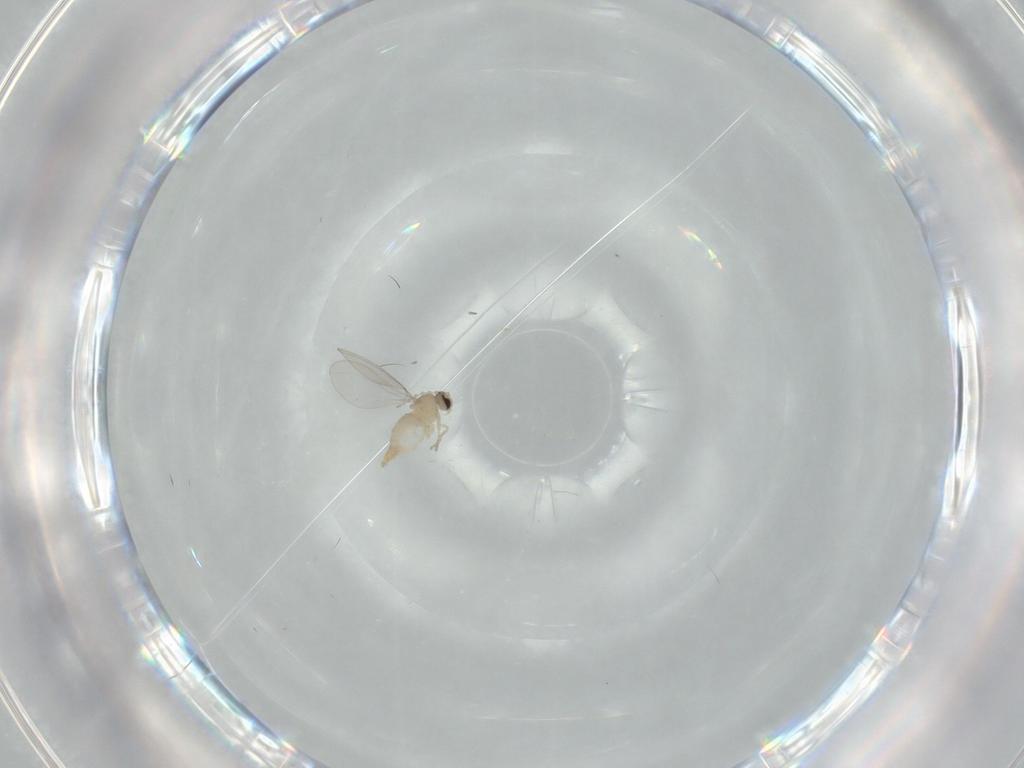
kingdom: Animalia
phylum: Arthropoda
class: Insecta
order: Diptera
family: Cecidomyiidae
